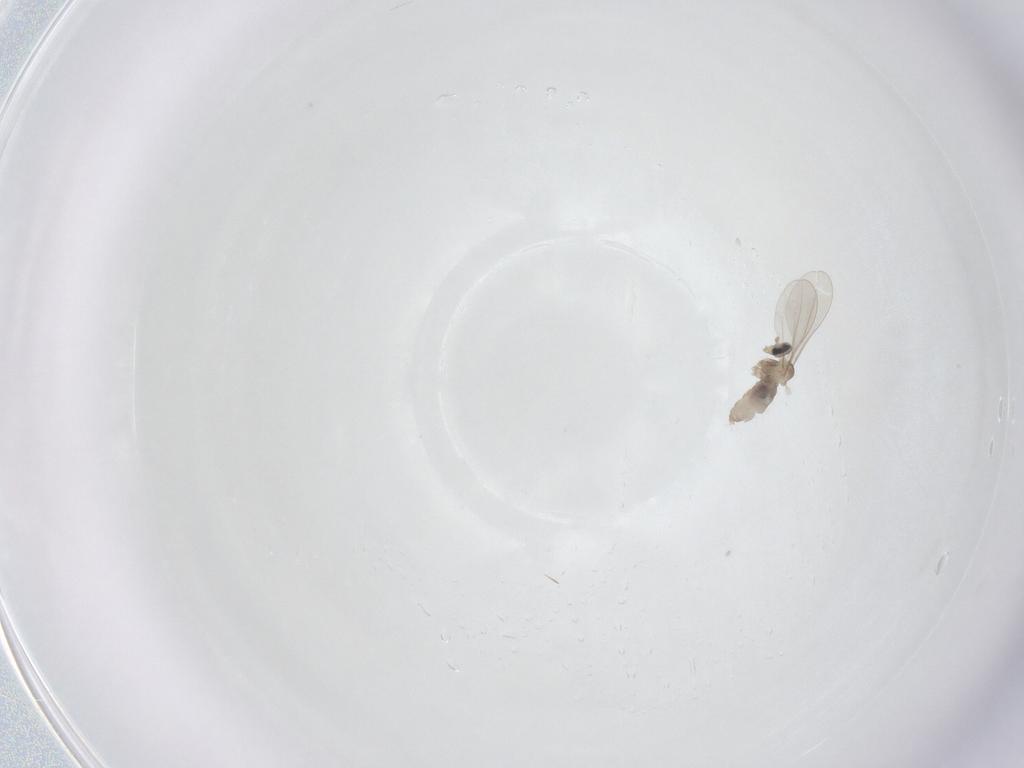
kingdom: Animalia
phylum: Arthropoda
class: Insecta
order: Diptera
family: Cecidomyiidae
